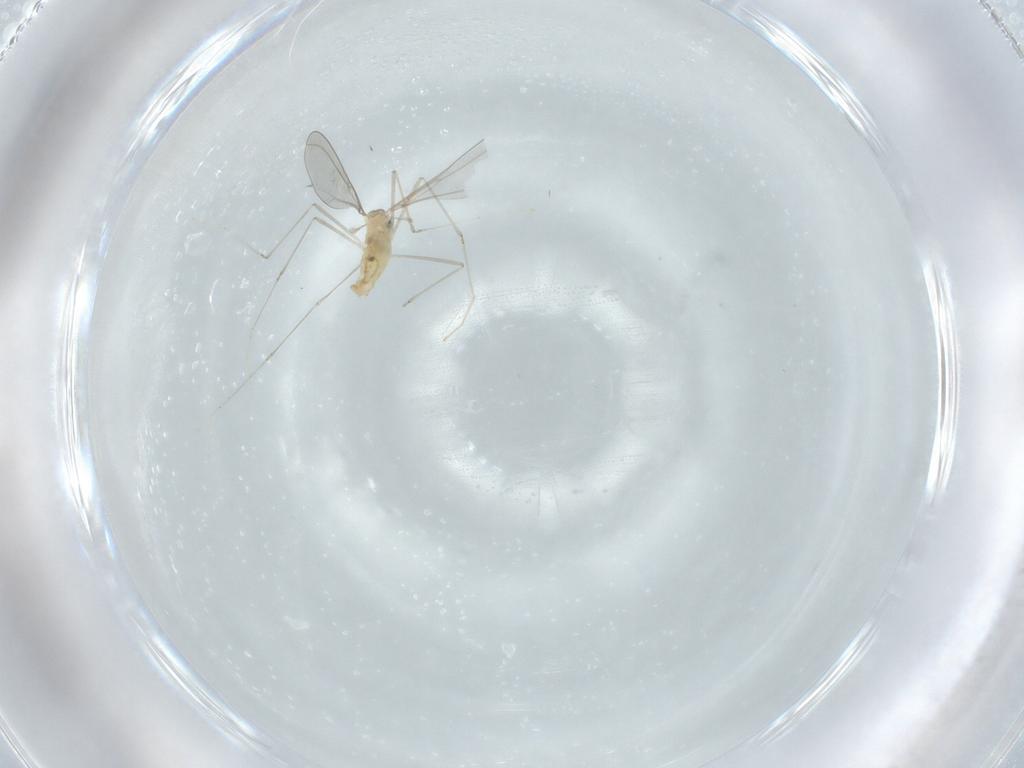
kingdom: Animalia
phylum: Arthropoda
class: Insecta
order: Diptera
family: Cecidomyiidae
